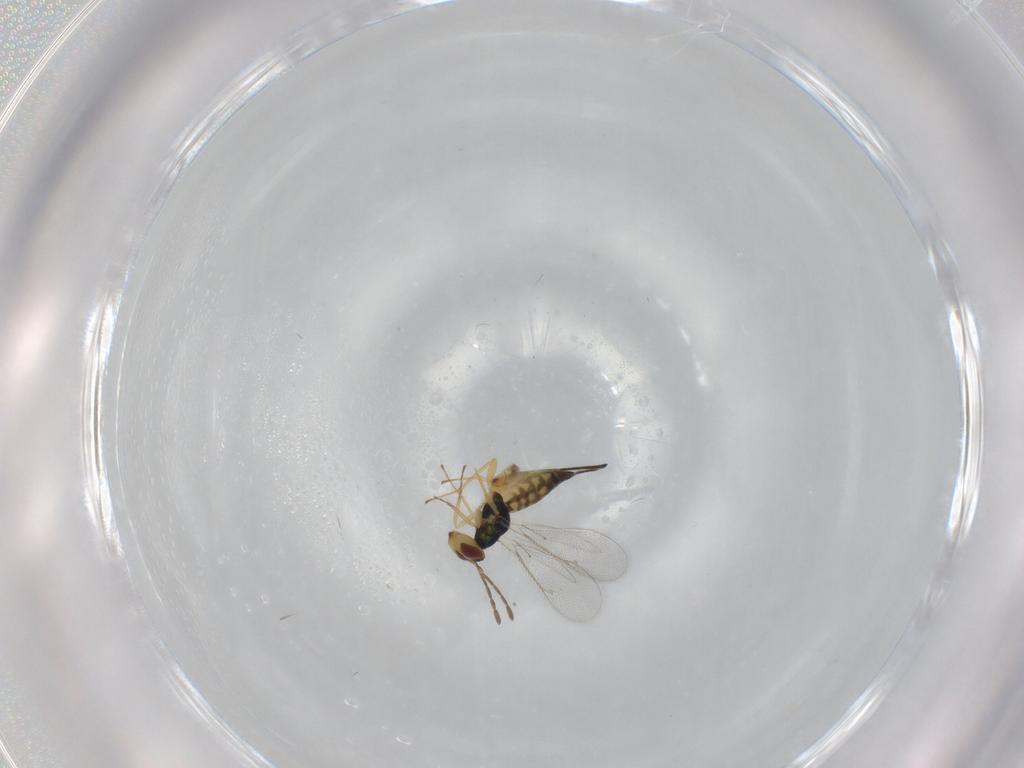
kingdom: Animalia
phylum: Arthropoda
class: Insecta
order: Hymenoptera
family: Eulophidae
